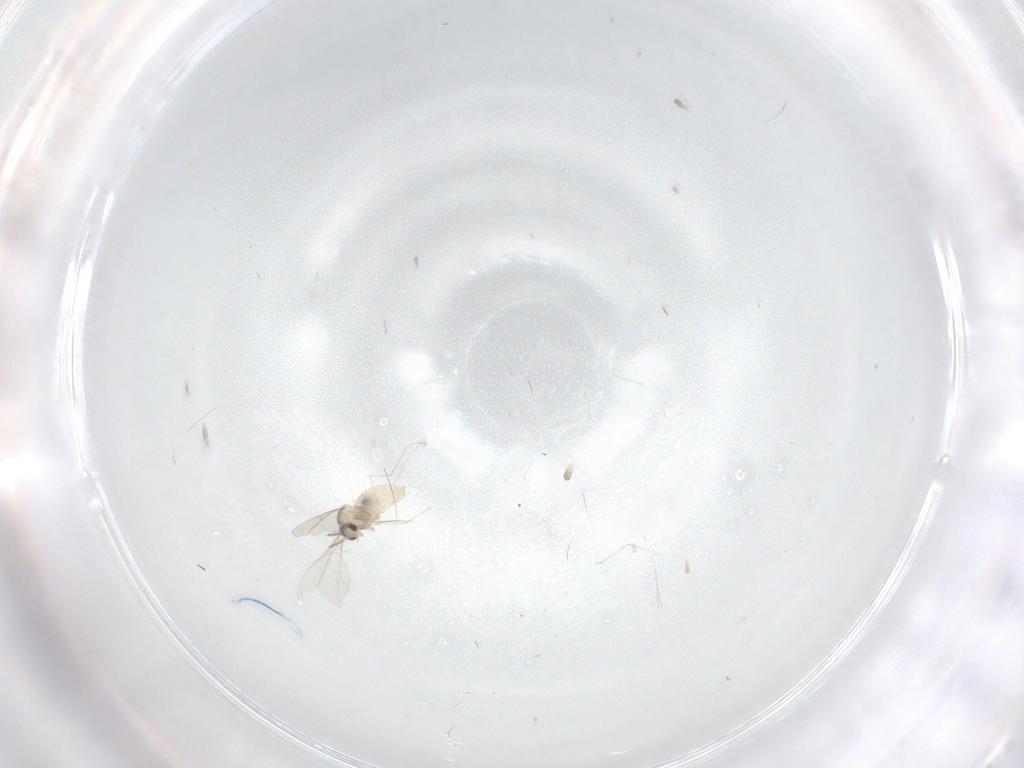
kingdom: Animalia
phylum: Arthropoda
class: Insecta
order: Diptera
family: Cecidomyiidae
